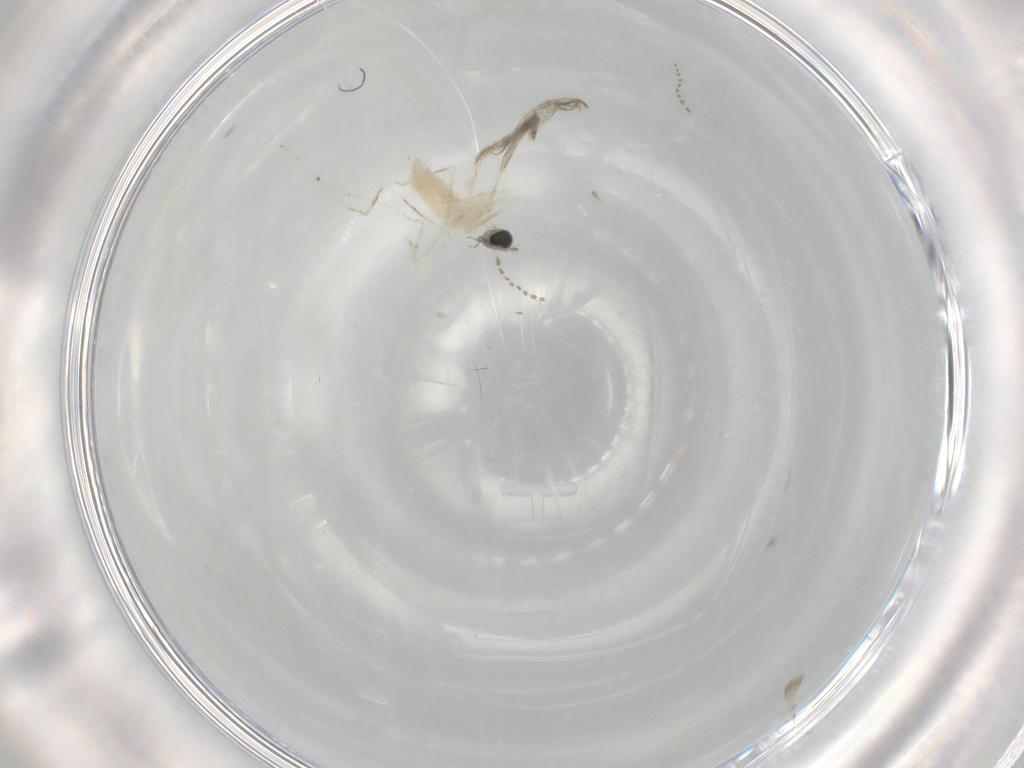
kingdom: Animalia
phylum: Arthropoda
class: Insecta
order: Diptera
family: Cecidomyiidae
